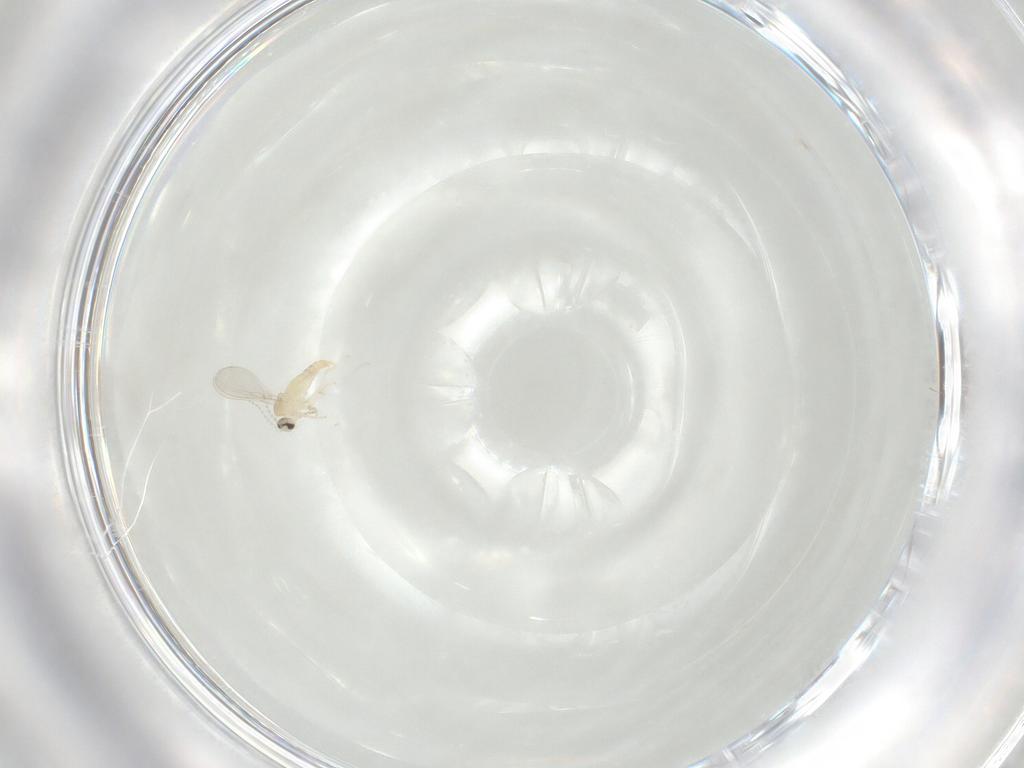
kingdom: Animalia
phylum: Arthropoda
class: Insecta
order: Diptera
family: Cecidomyiidae
